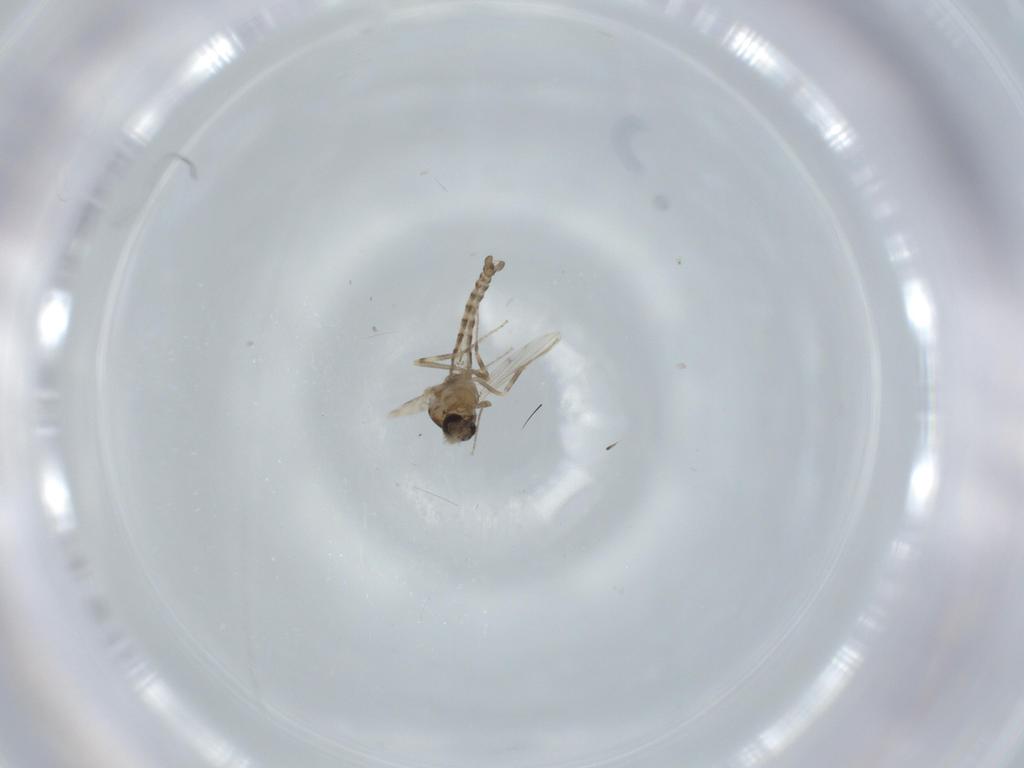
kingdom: Animalia
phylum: Arthropoda
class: Insecta
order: Diptera
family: Ceratopogonidae
